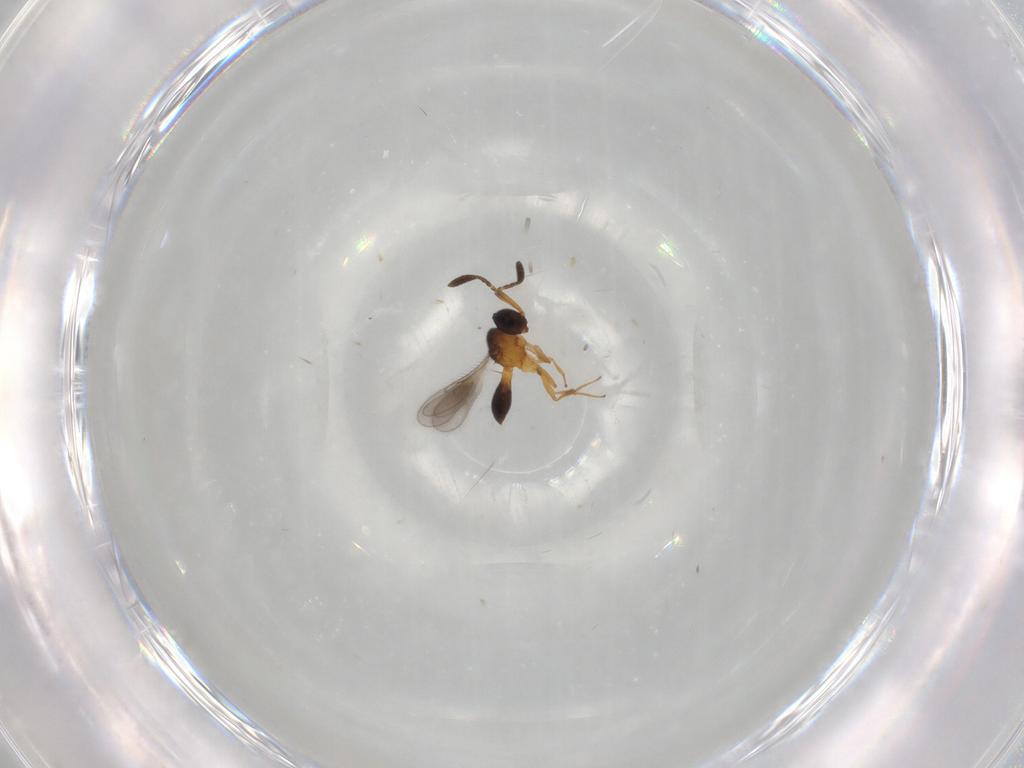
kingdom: Animalia
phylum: Arthropoda
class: Insecta
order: Hymenoptera
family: Scelionidae
